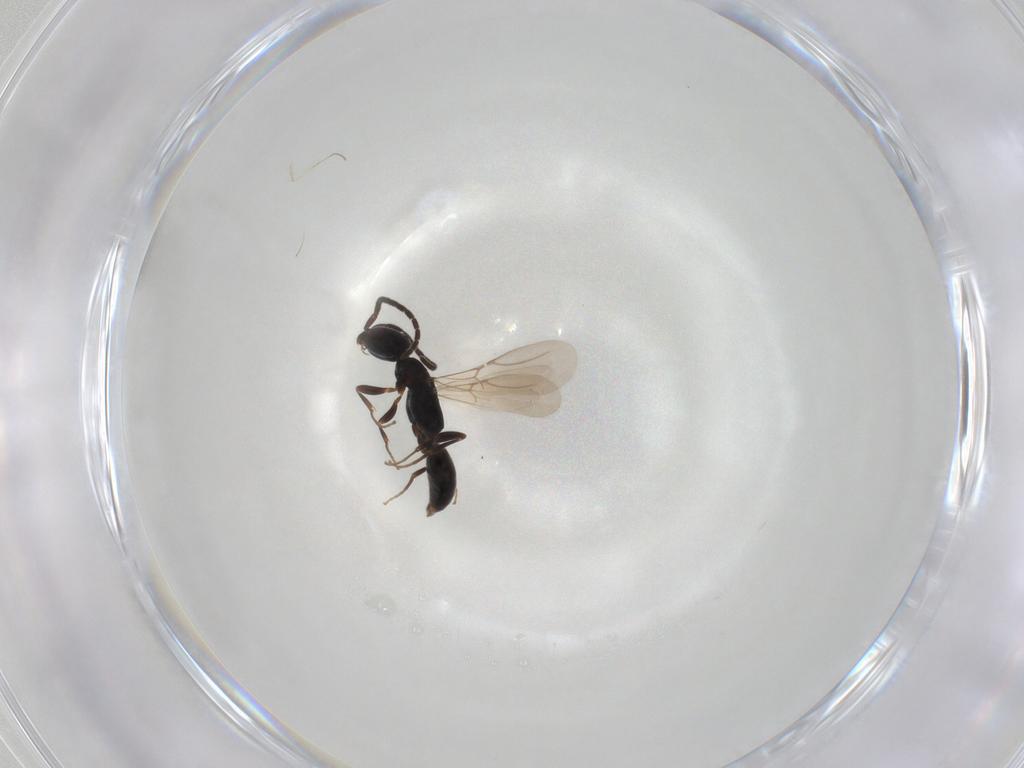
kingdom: Animalia
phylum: Arthropoda
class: Insecta
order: Hymenoptera
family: Bethylidae
